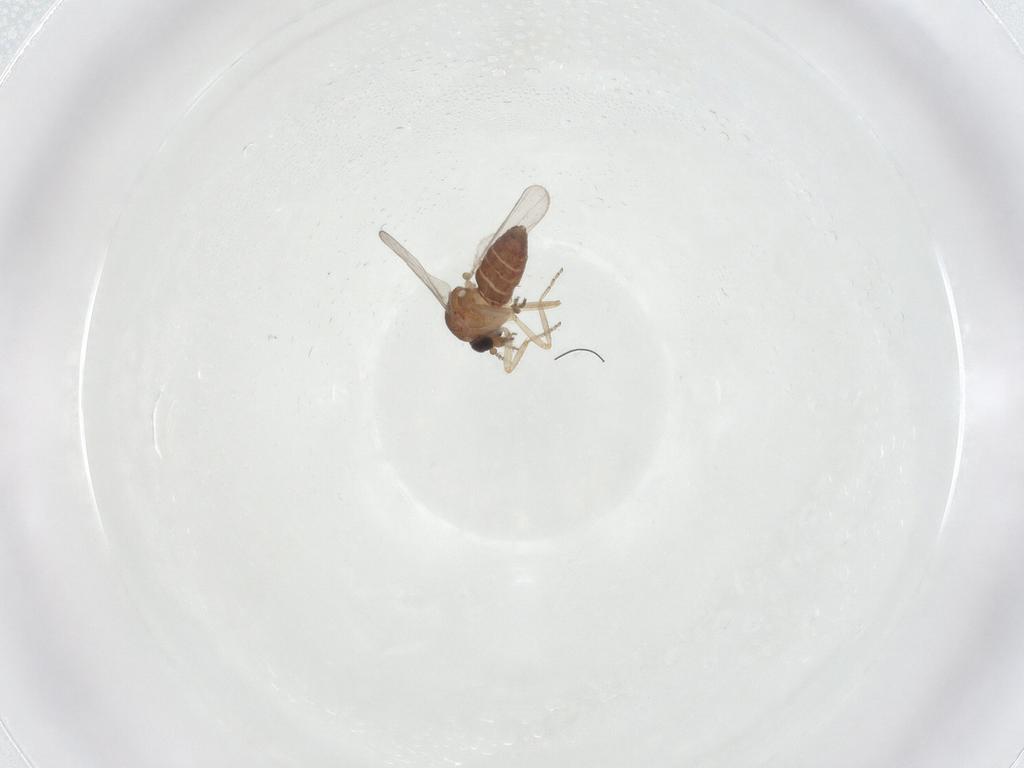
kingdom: Animalia
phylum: Arthropoda
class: Insecta
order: Diptera
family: Ceratopogonidae
